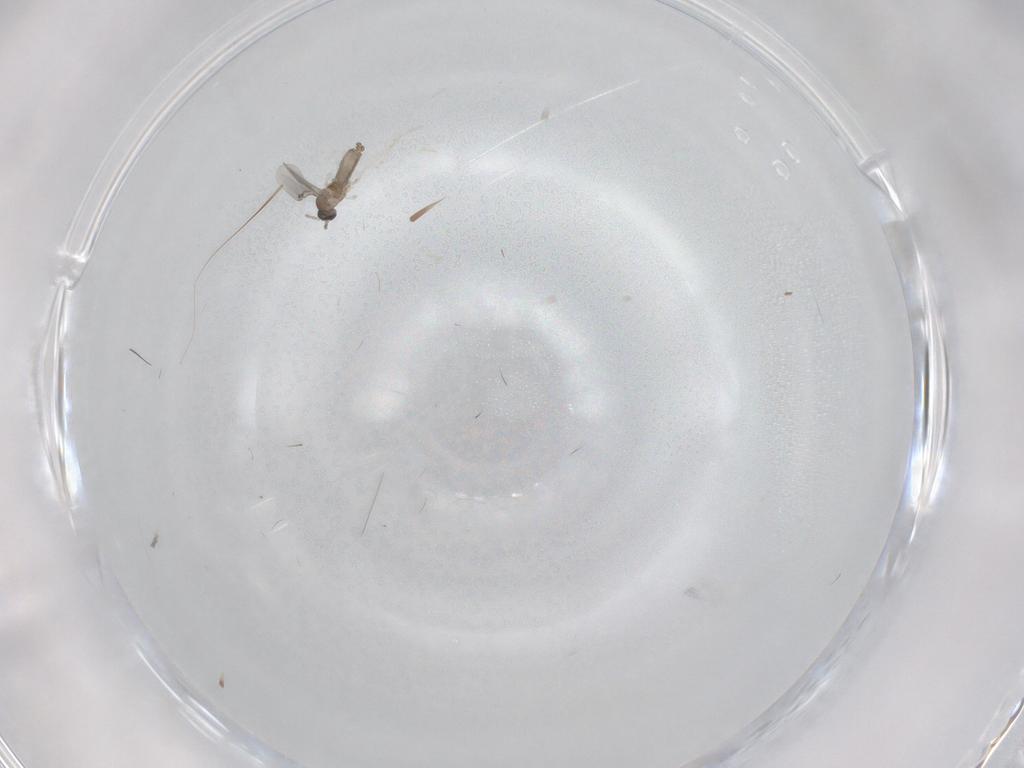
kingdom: Animalia
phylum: Arthropoda
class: Insecta
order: Diptera
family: Cecidomyiidae
